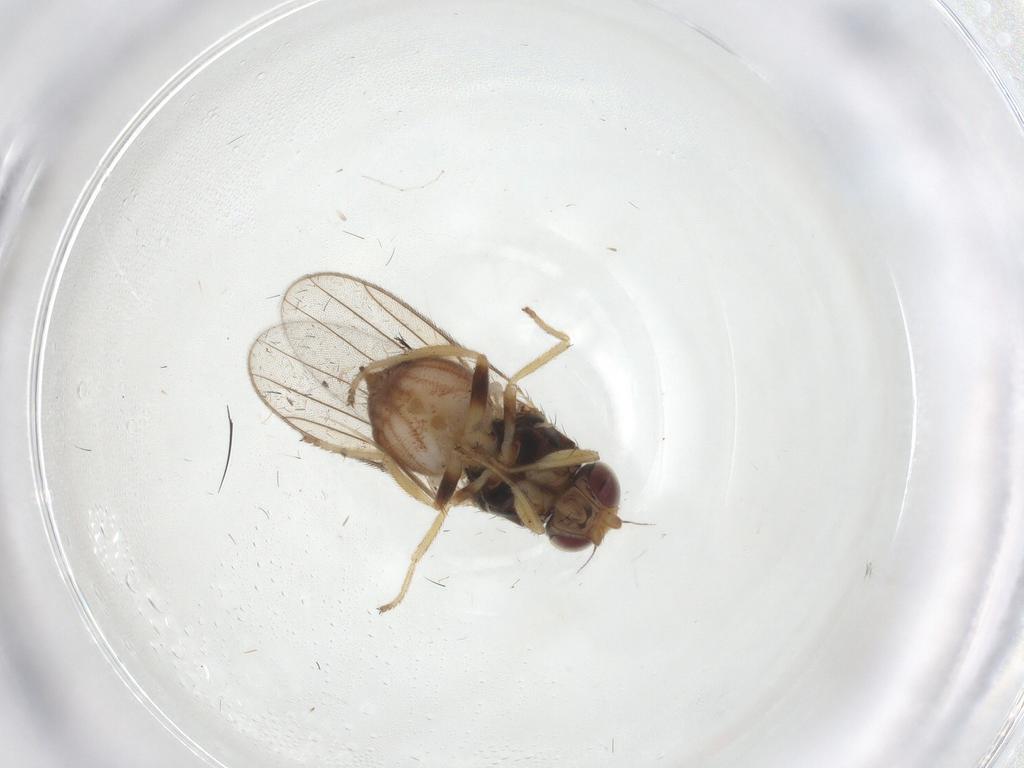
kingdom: Animalia
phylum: Arthropoda
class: Insecta
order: Diptera
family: Chloropidae
